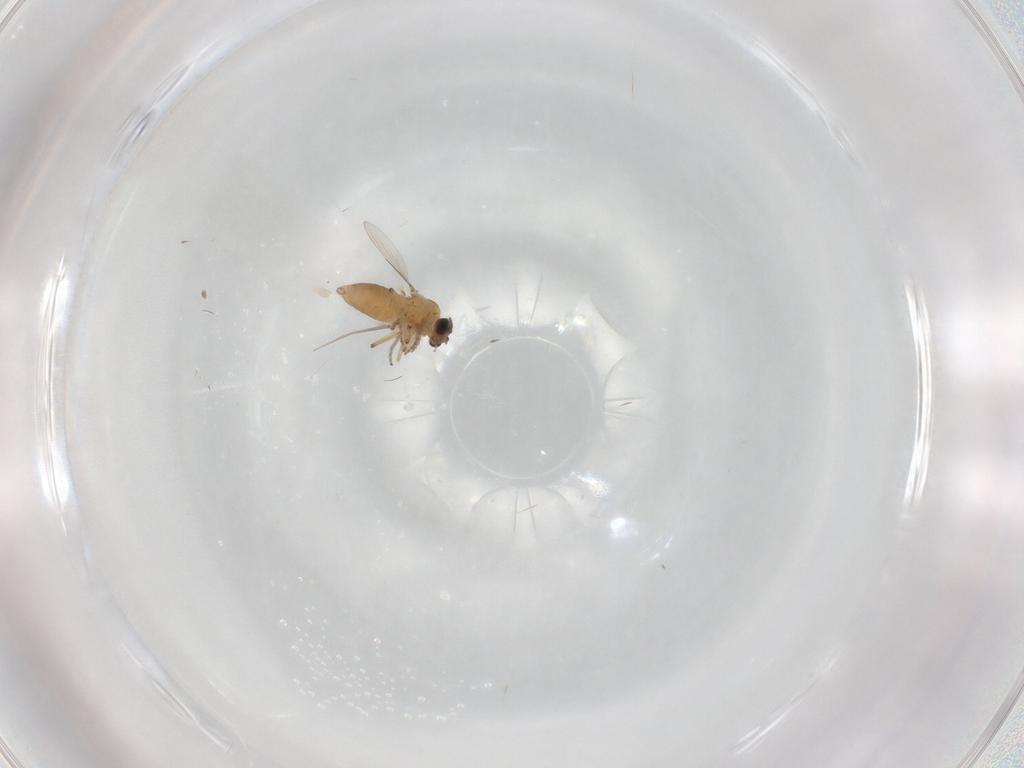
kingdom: Animalia
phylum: Arthropoda
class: Insecta
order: Diptera
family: Ceratopogonidae
